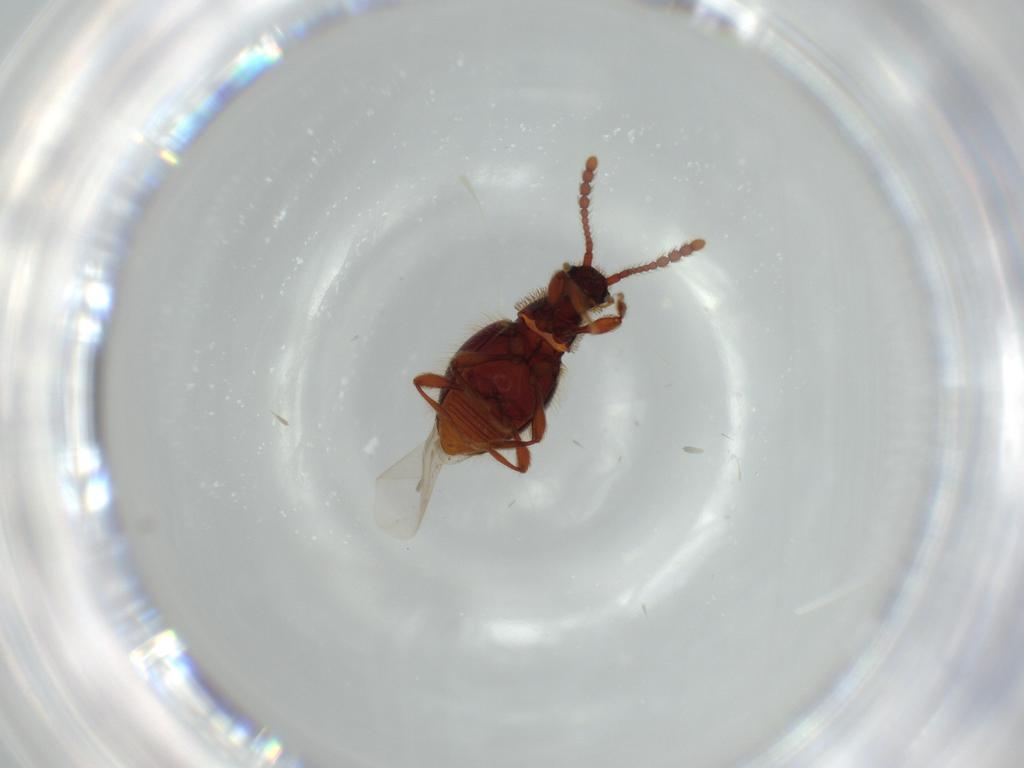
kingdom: Animalia
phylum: Arthropoda
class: Insecta
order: Coleoptera
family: Staphylinidae
